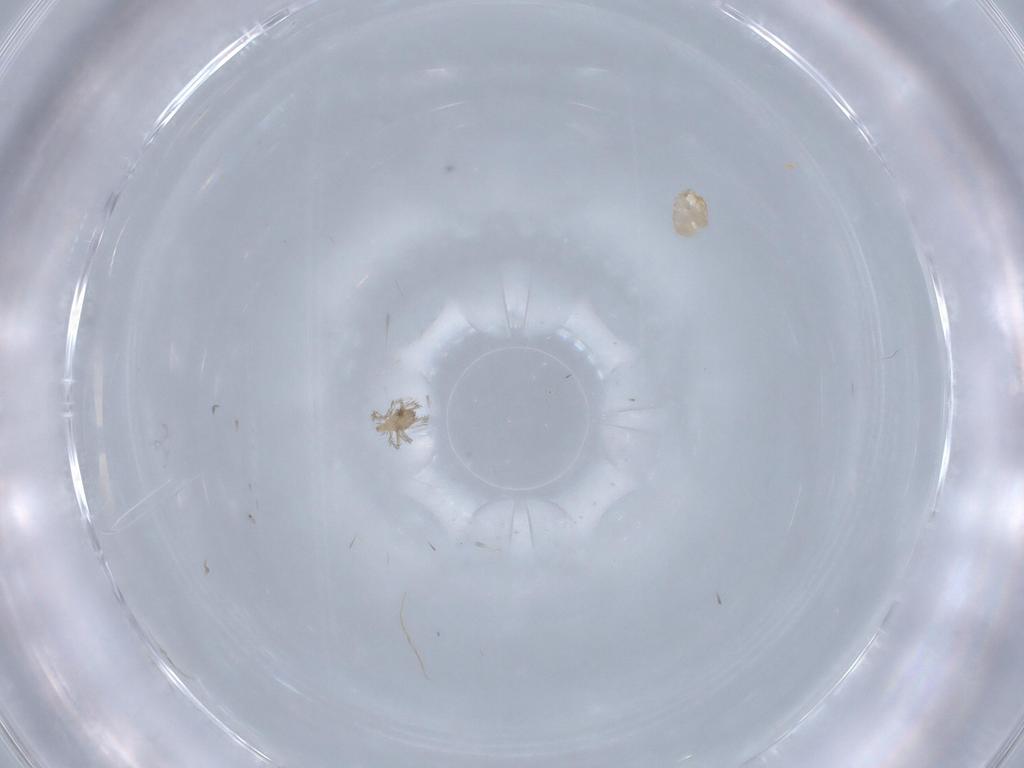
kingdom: Animalia
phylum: Arthropoda
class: Arachnida
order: Trombidiformes
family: Erythraeidae
